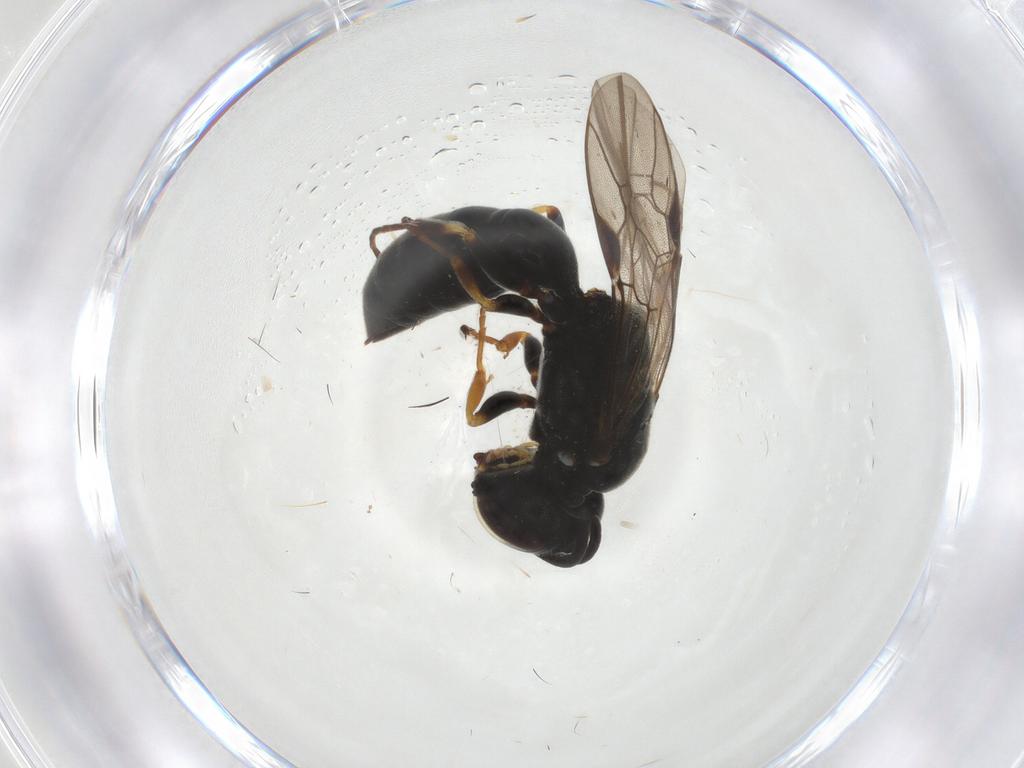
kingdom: Animalia
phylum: Arthropoda
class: Insecta
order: Hymenoptera
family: Pemphredonidae
